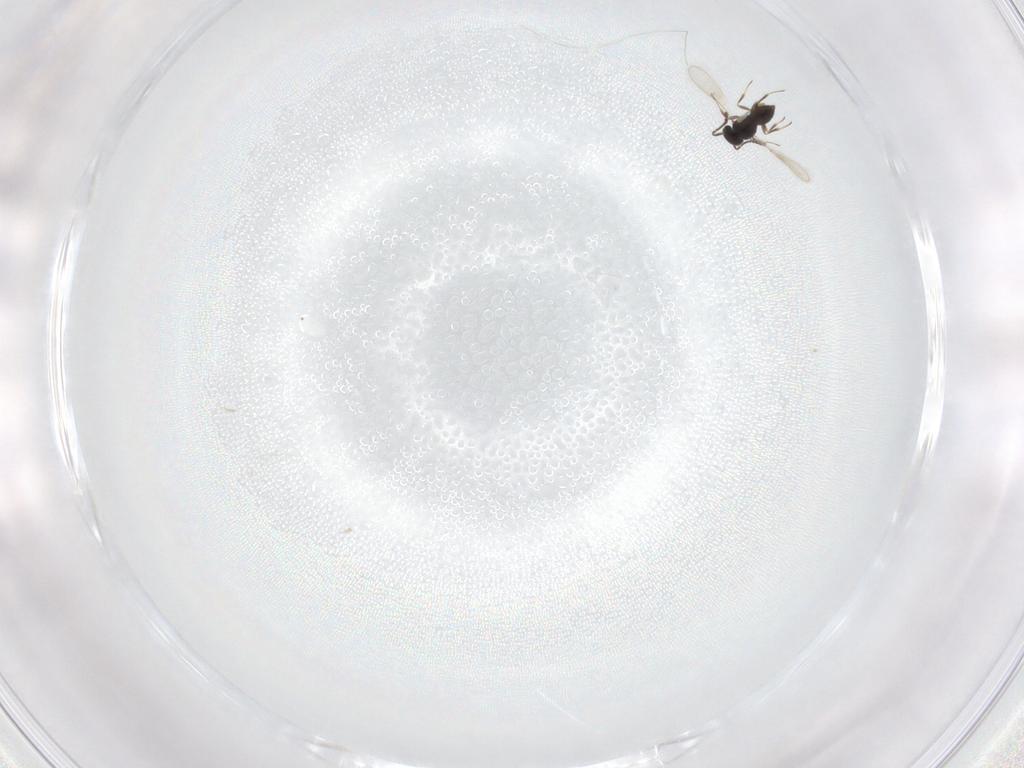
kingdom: Animalia
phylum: Arthropoda
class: Insecta
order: Hymenoptera
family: Scelionidae
